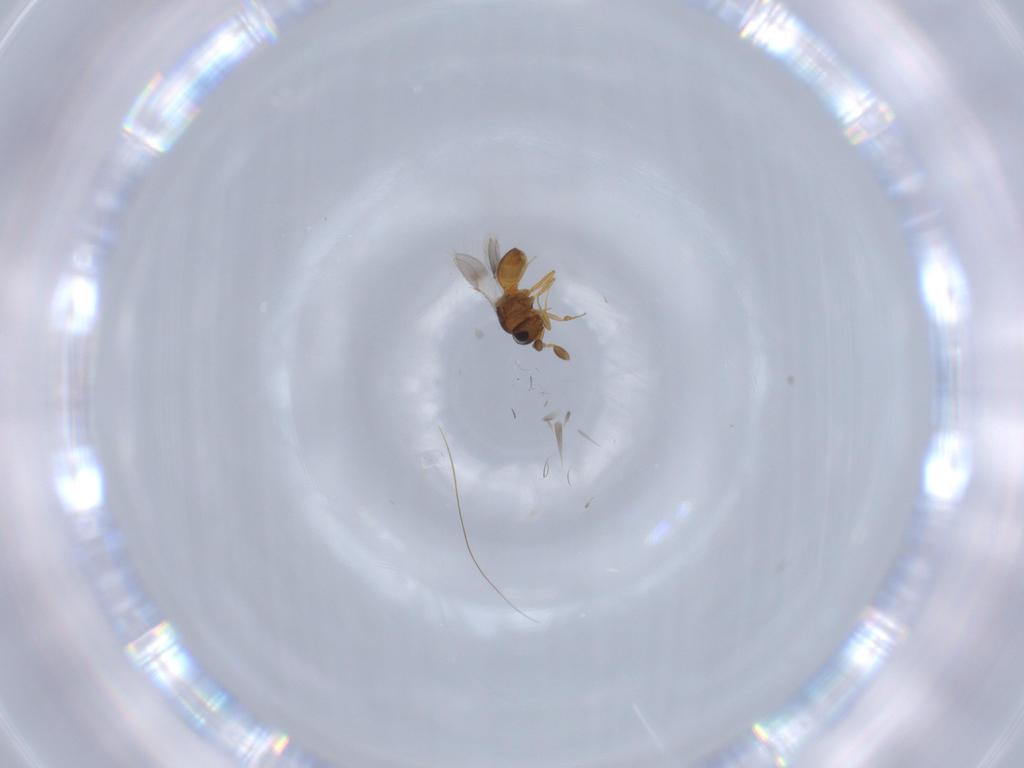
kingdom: Animalia
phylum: Arthropoda
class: Insecta
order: Hymenoptera
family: Scelionidae
